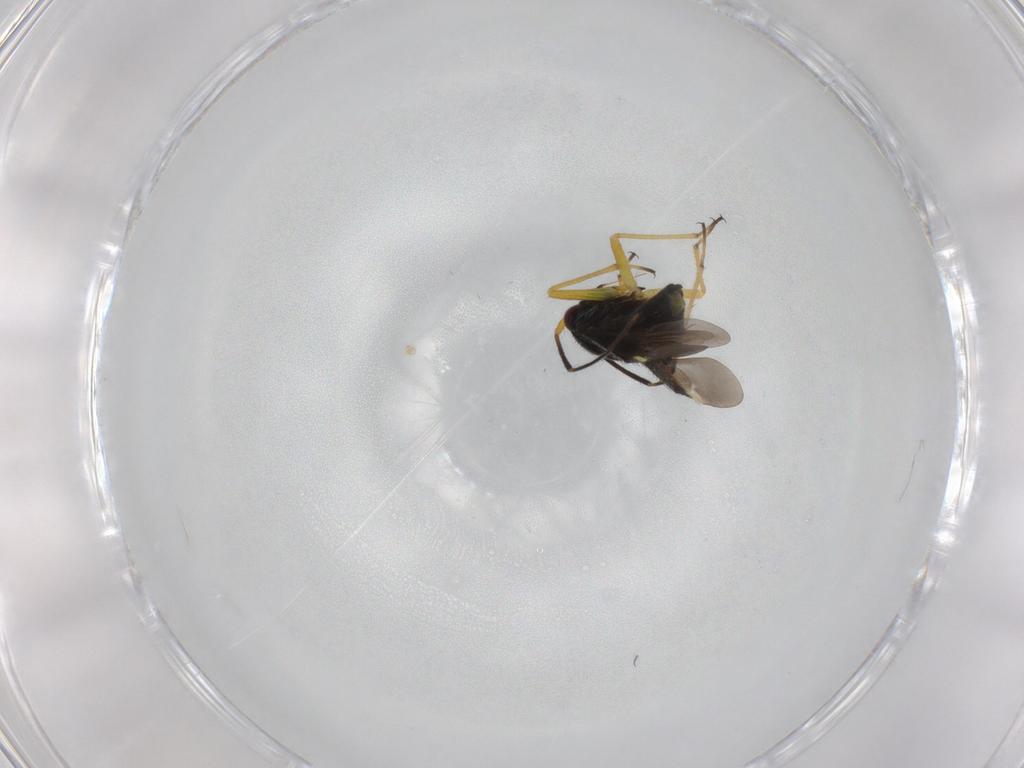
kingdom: Animalia
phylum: Arthropoda
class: Insecta
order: Hemiptera
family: Miridae
